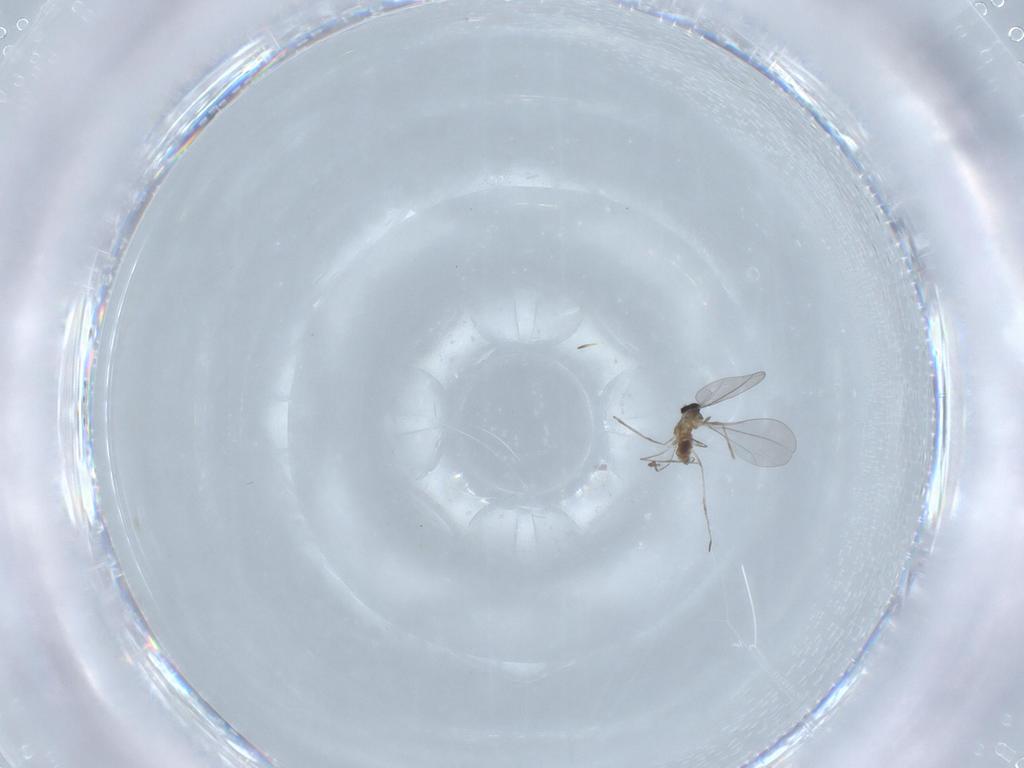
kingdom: Animalia
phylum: Arthropoda
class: Insecta
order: Diptera
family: Cecidomyiidae
